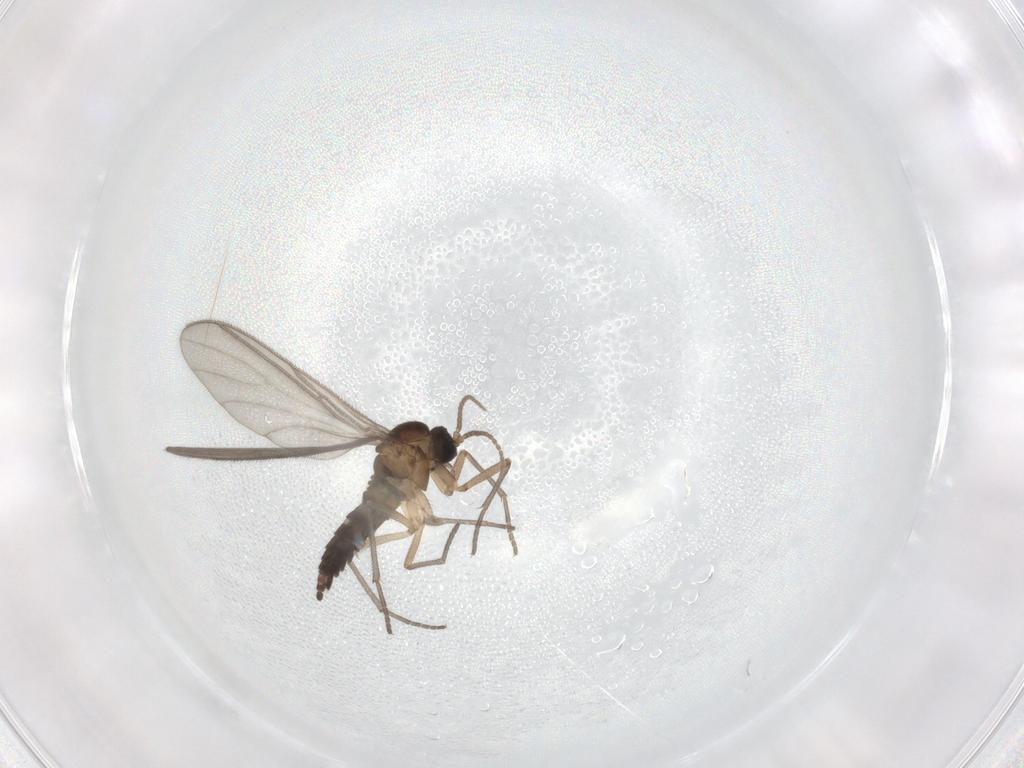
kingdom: Animalia
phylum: Arthropoda
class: Insecta
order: Diptera
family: Sciaridae
